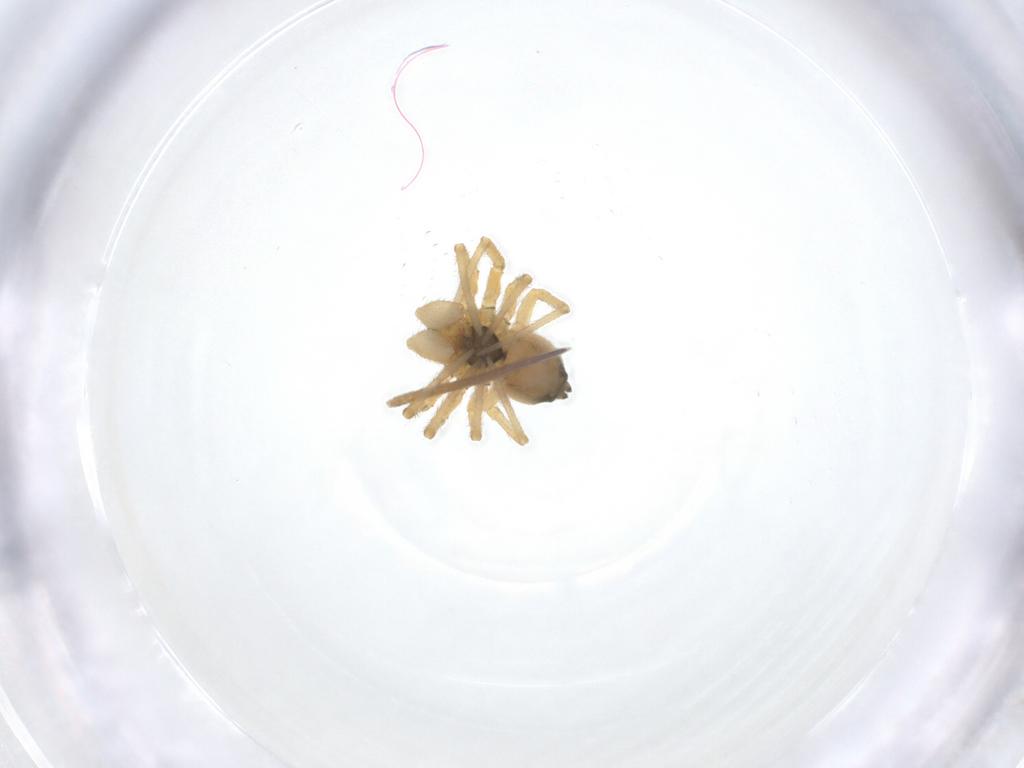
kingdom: Animalia
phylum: Arthropoda
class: Arachnida
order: Araneae
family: Linyphiidae
